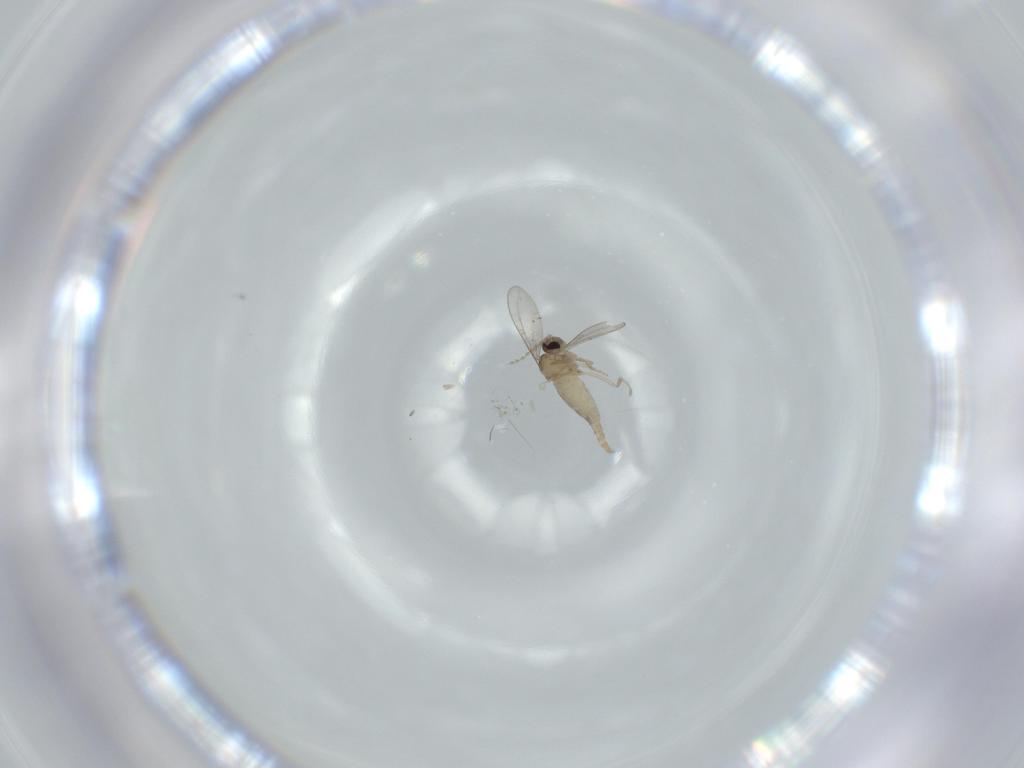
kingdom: Animalia
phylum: Arthropoda
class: Insecta
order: Diptera
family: Cecidomyiidae
